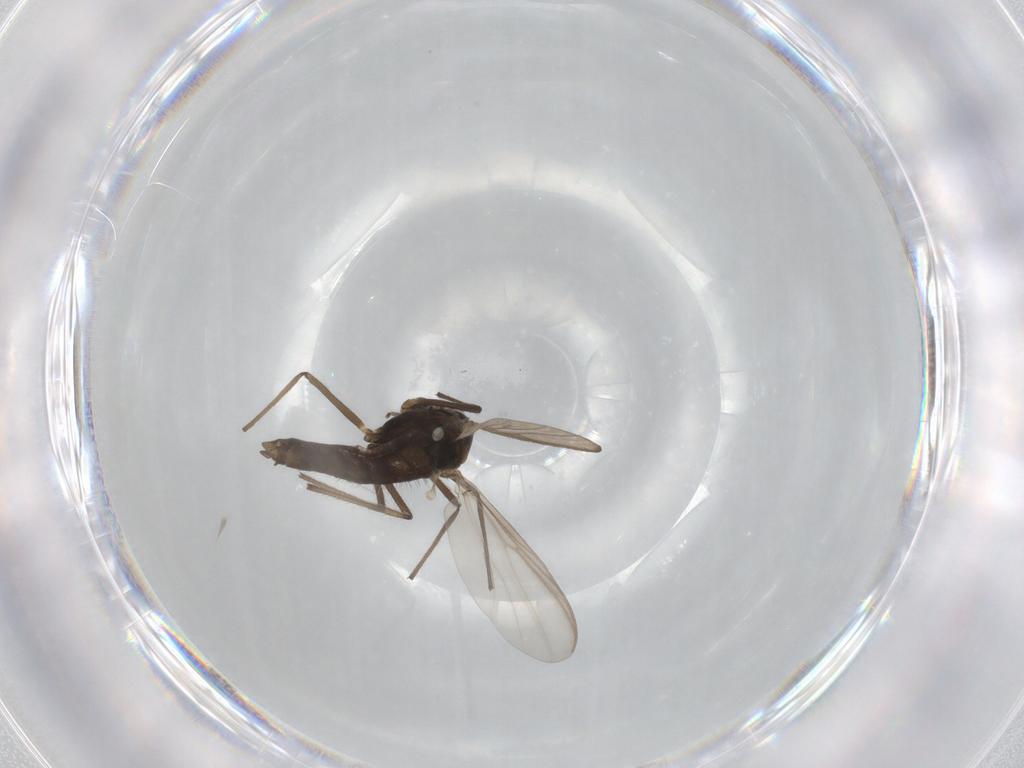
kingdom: Animalia
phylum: Arthropoda
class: Insecta
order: Diptera
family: Chironomidae
